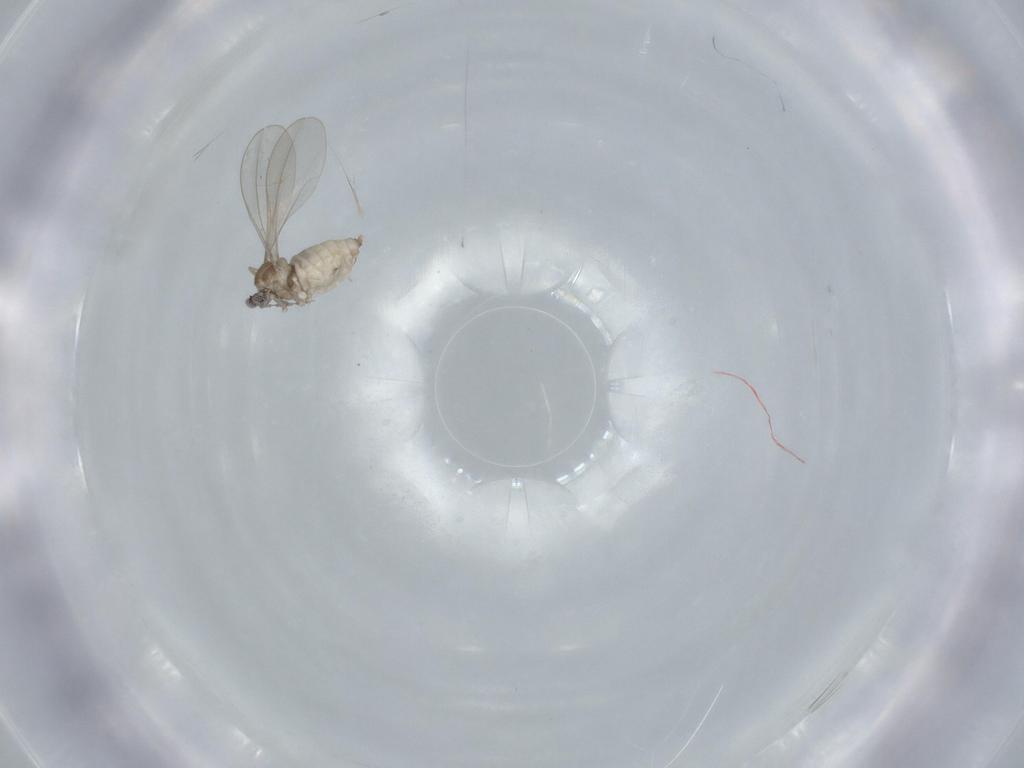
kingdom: Animalia
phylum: Arthropoda
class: Insecta
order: Diptera
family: Cecidomyiidae
